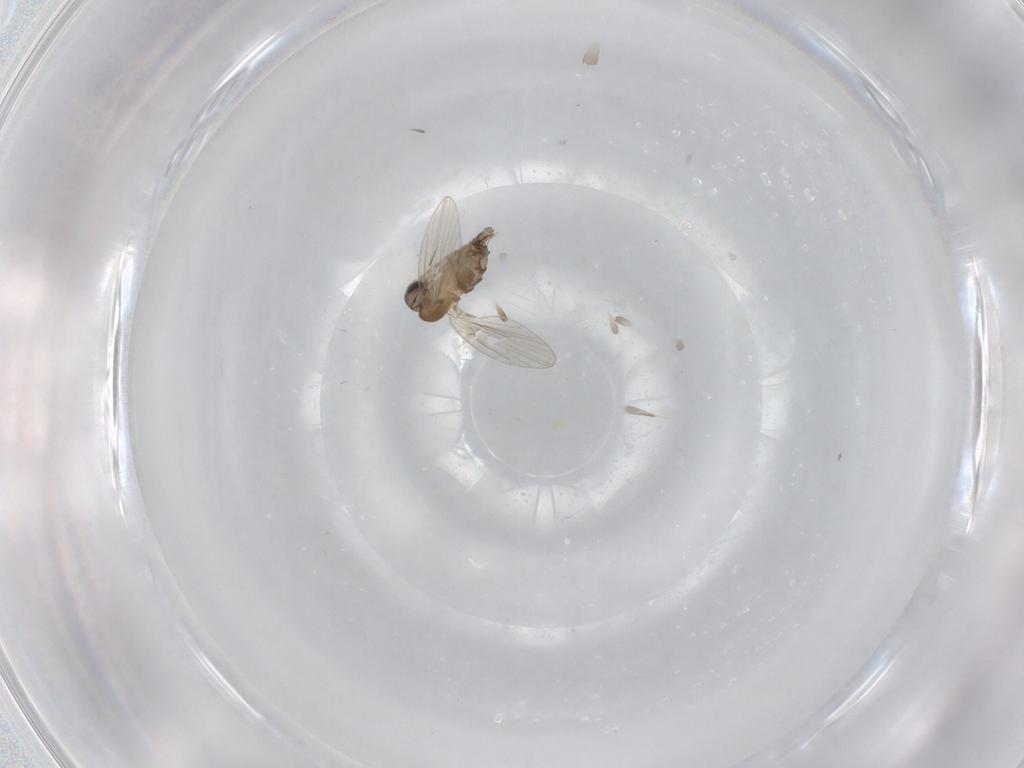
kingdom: Animalia
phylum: Arthropoda
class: Insecta
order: Diptera
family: Psychodidae
